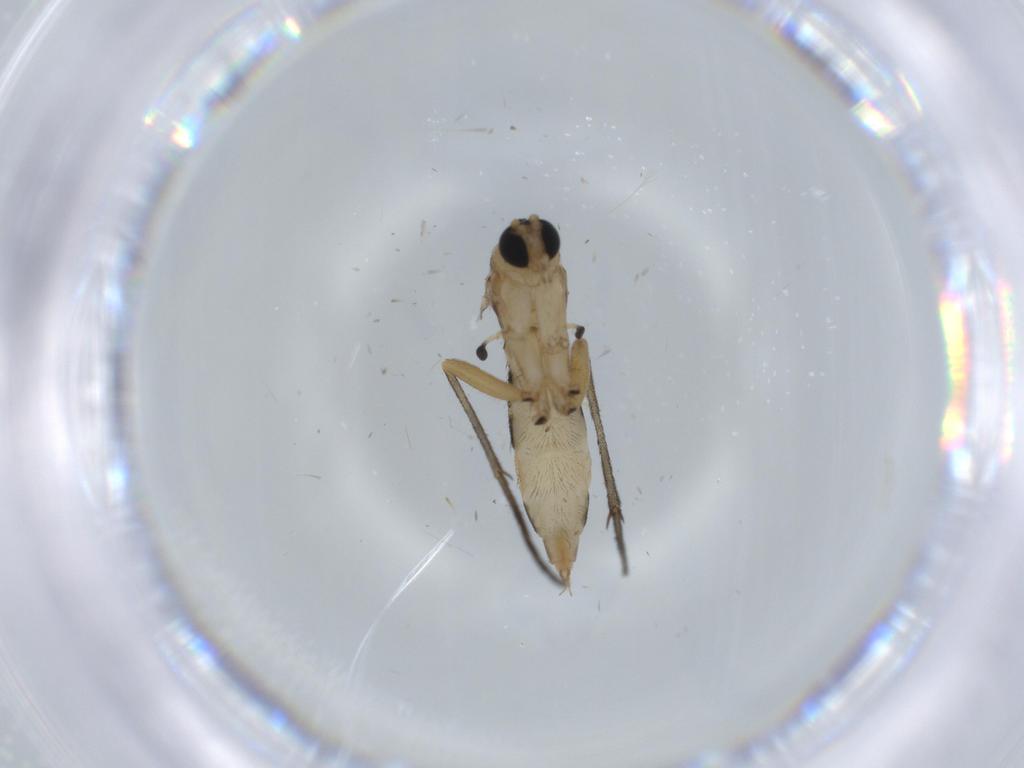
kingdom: Animalia
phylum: Arthropoda
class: Insecta
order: Diptera
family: Sciaridae
